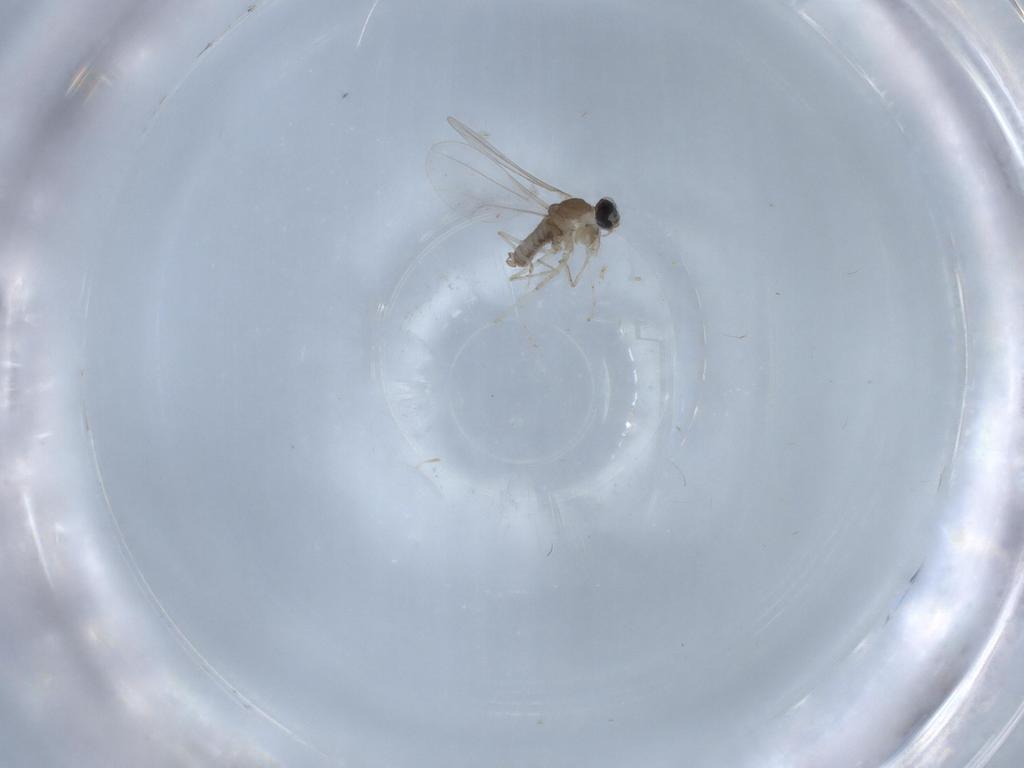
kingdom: Animalia
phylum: Arthropoda
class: Insecta
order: Diptera
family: Cecidomyiidae
